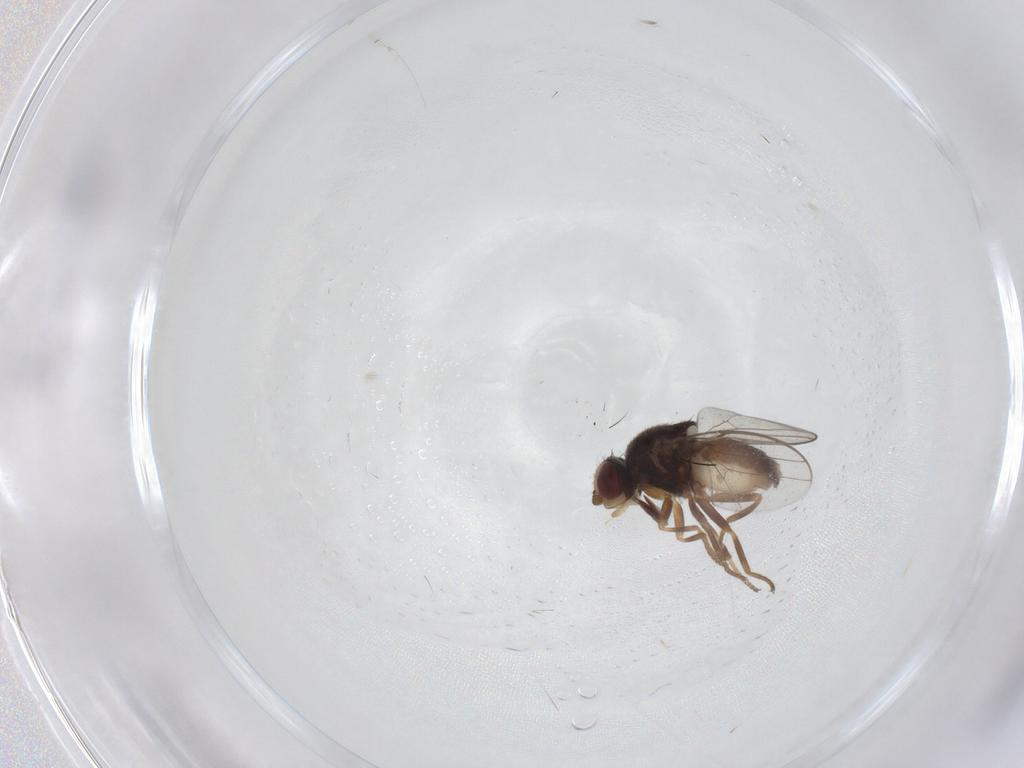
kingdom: Animalia
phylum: Arthropoda
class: Insecta
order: Diptera
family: Chloropidae
